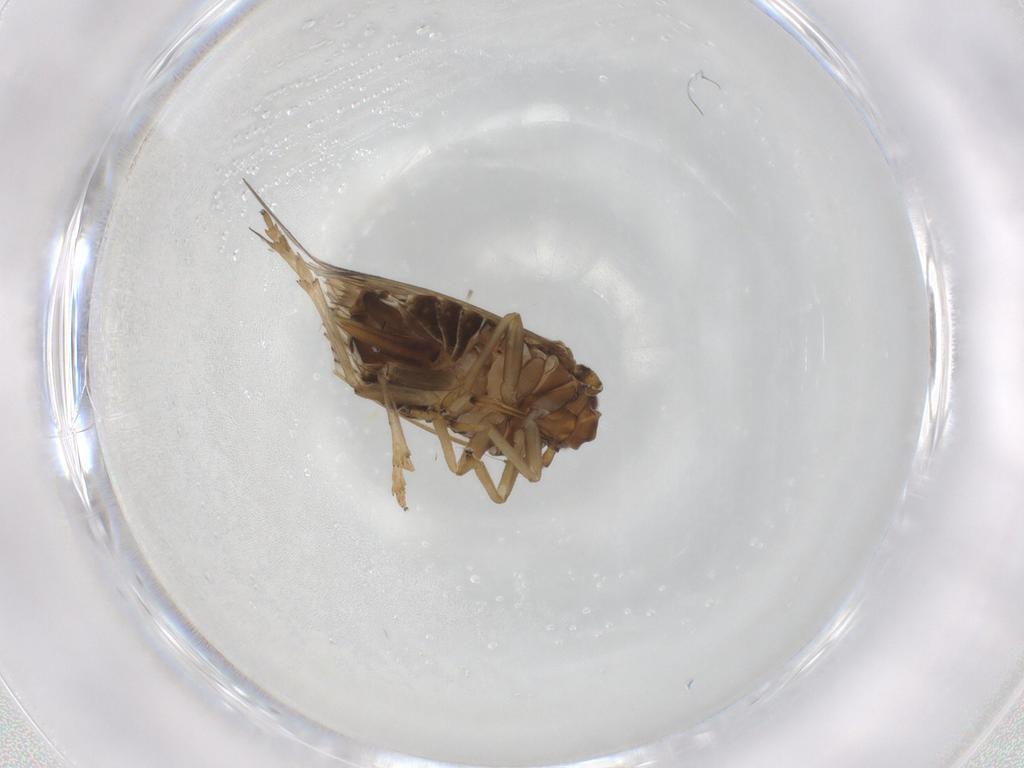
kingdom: Animalia
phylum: Arthropoda
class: Insecta
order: Hemiptera
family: Delphacidae
